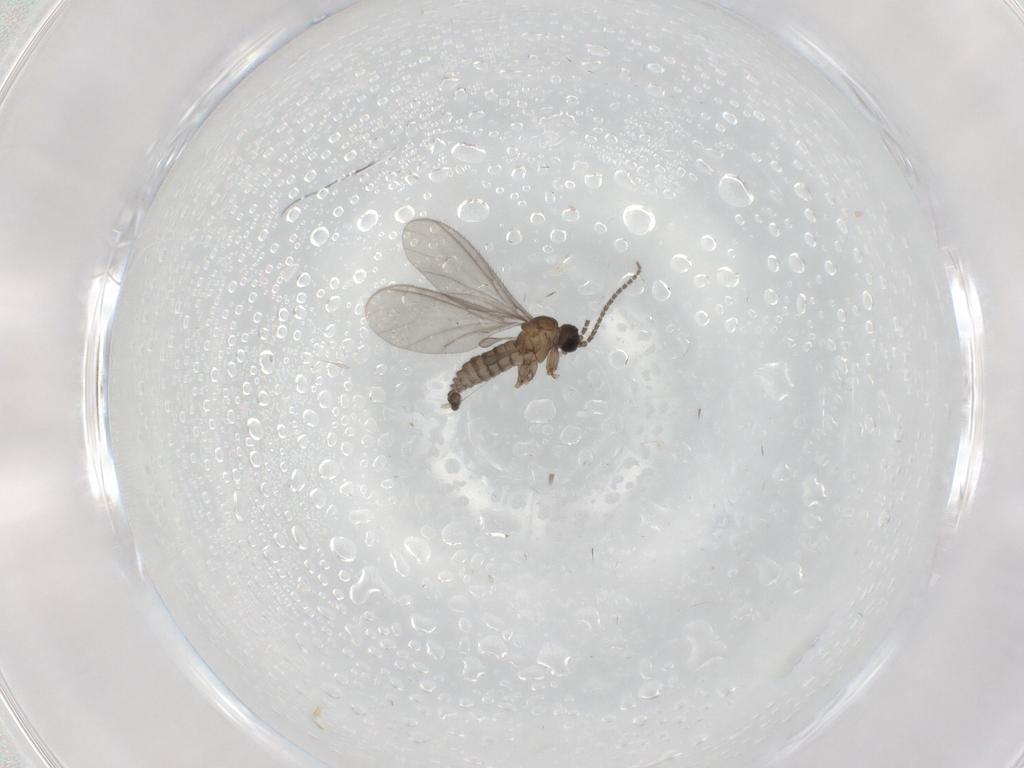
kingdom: Animalia
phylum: Arthropoda
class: Insecta
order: Diptera
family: Sciaridae
